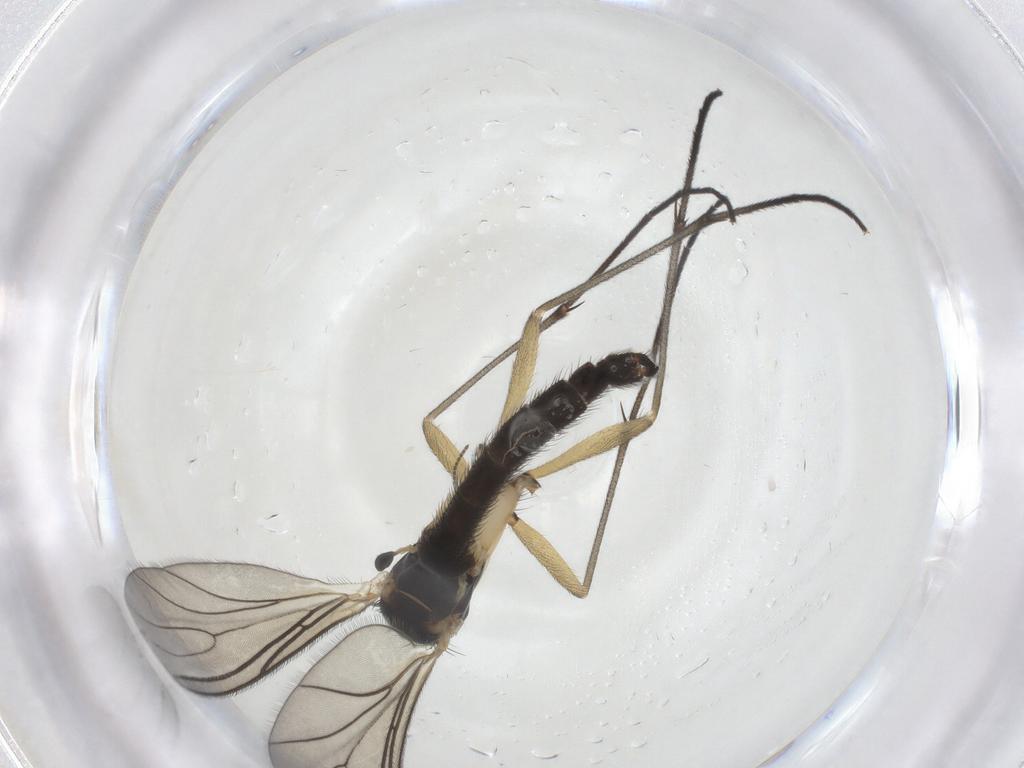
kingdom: Animalia
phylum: Arthropoda
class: Insecta
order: Diptera
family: Sciaridae
